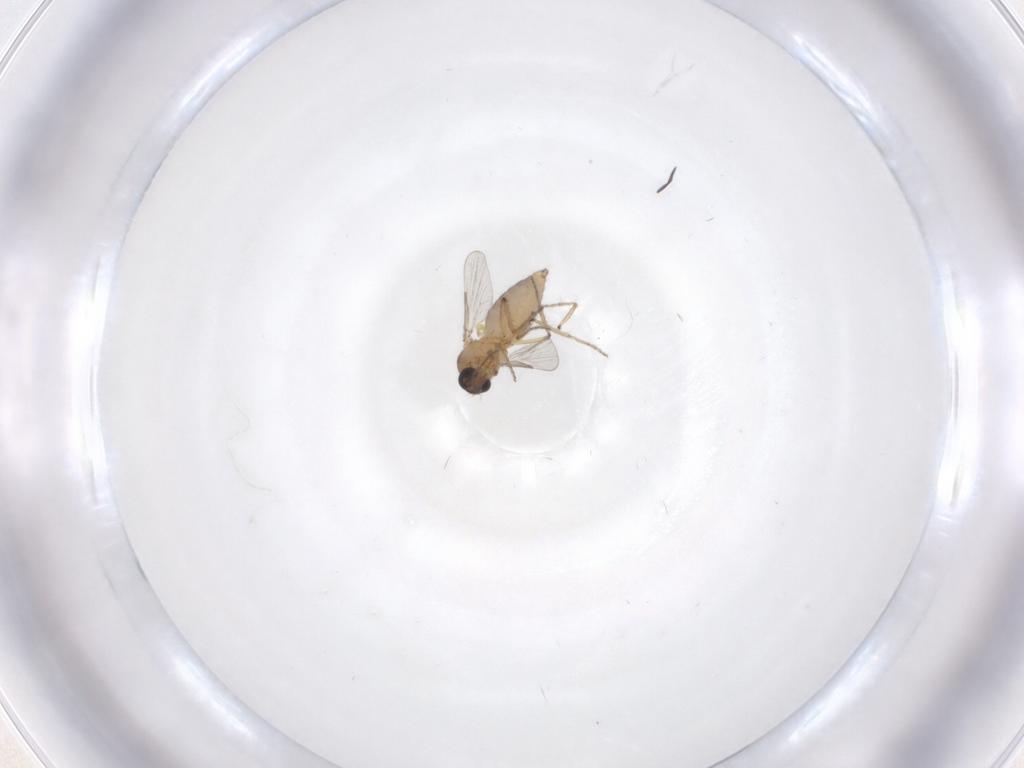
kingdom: Animalia
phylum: Arthropoda
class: Insecta
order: Diptera
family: Ceratopogonidae
